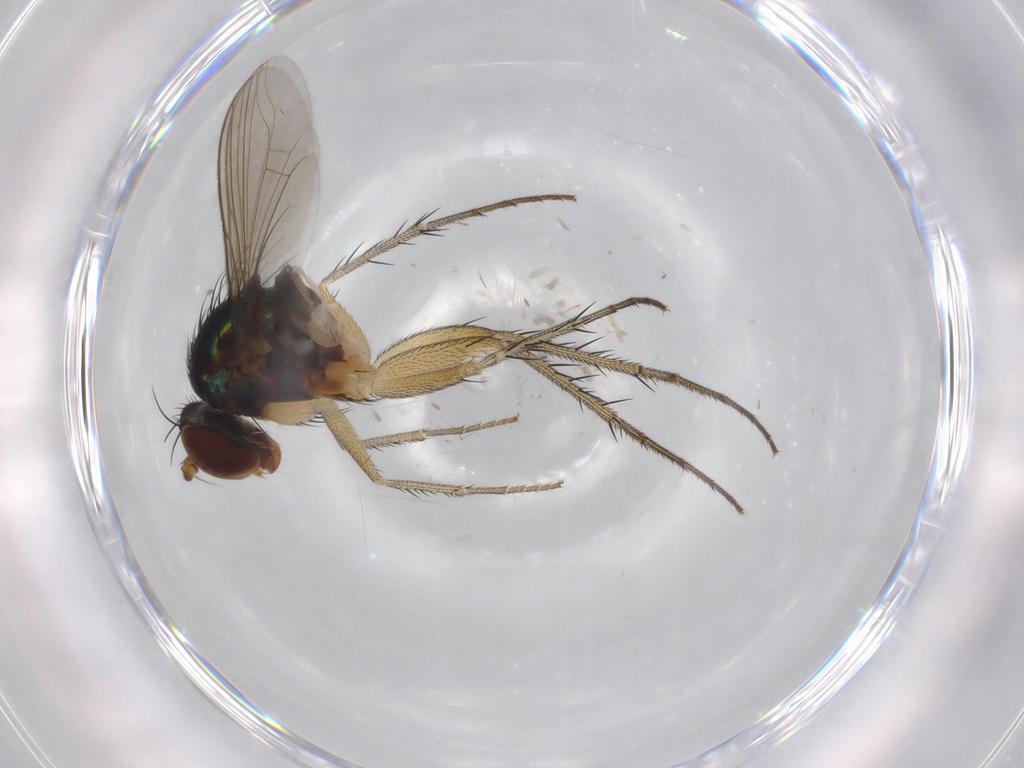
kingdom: Animalia
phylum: Arthropoda
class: Insecta
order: Diptera
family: Dolichopodidae
